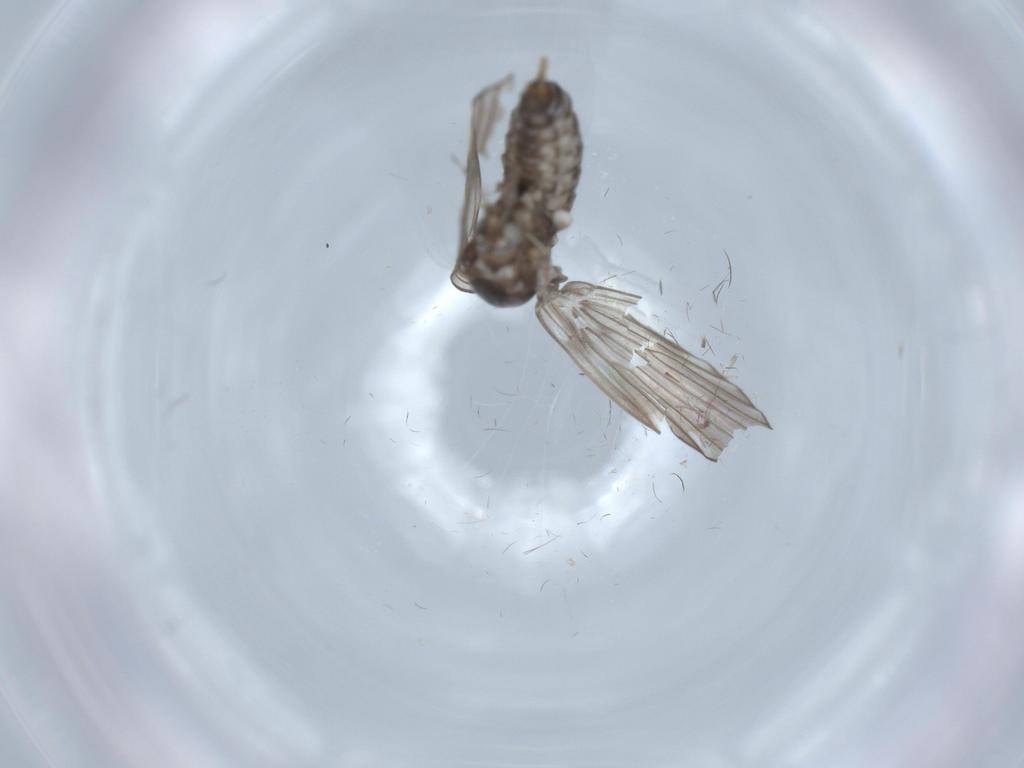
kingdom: Animalia
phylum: Arthropoda
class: Insecta
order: Diptera
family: Psychodidae
